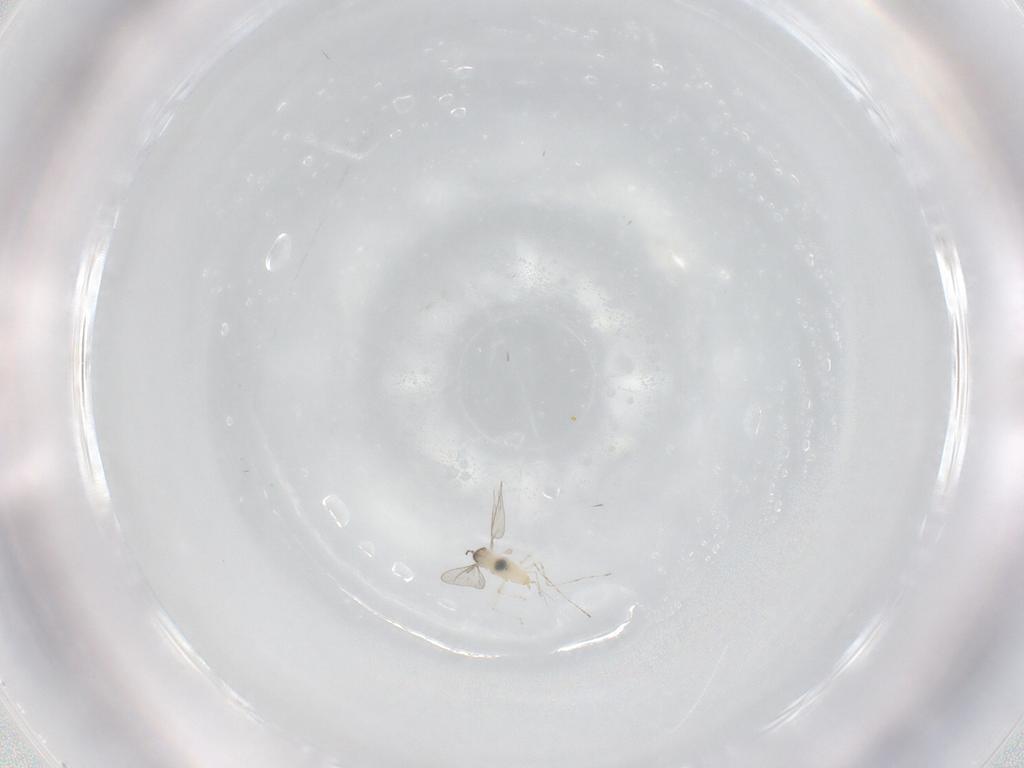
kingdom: Animalia
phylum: Arthropoda
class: Insecta
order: Diptera
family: Cecidomyiidae
